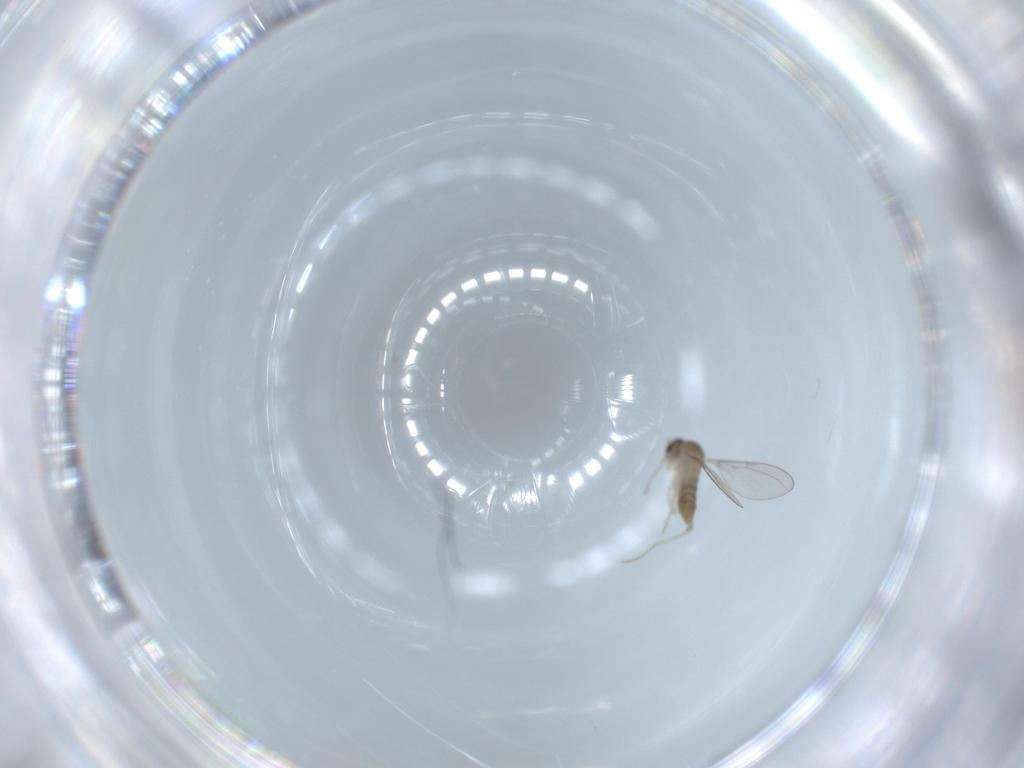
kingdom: Animalia
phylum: Arthropoda
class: Insecta
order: Diptera
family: Cecidomyiidae
